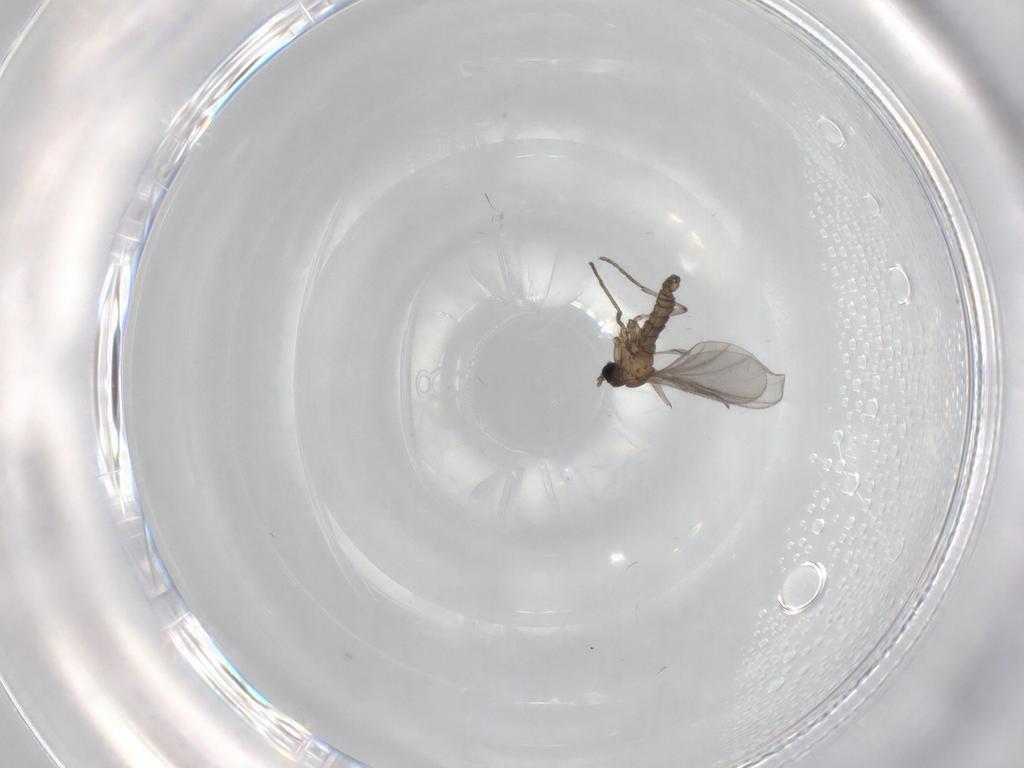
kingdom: Animalia
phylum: Arthropoda
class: Insecta
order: Diptera
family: Sciaridae
